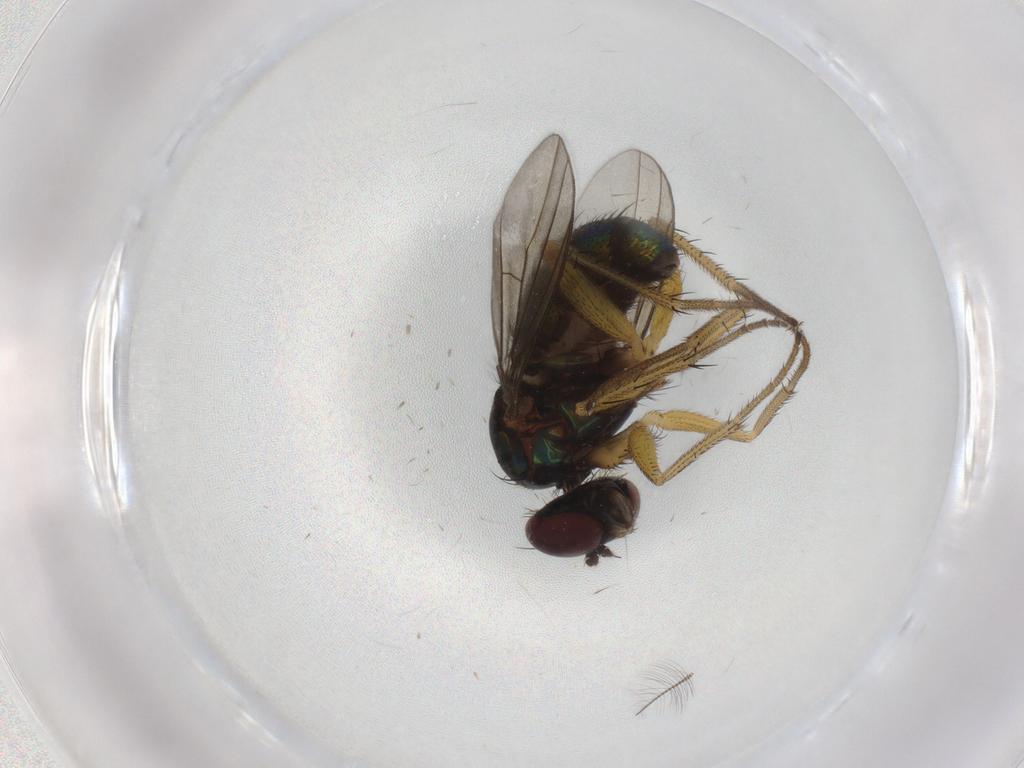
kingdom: Animalia
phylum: Arthropoda
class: Insecta
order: Diptera
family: Dolichopodidae
